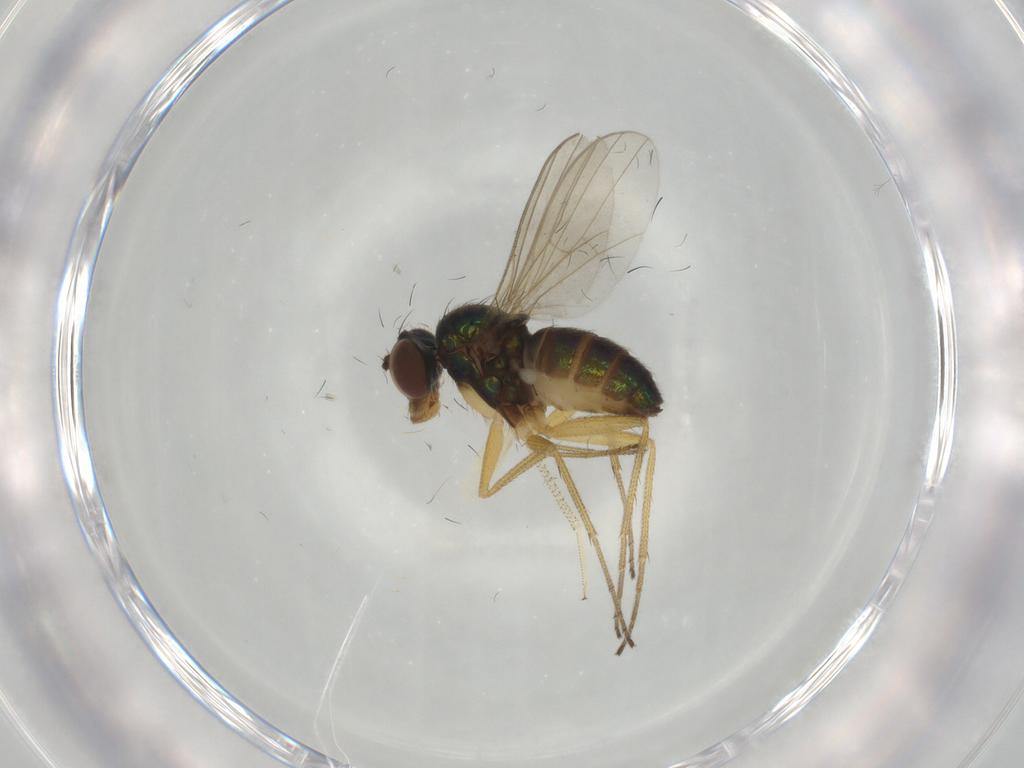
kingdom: Animalia
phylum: Arthropoda
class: Insecta
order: Diptera
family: Dolichopodidae
